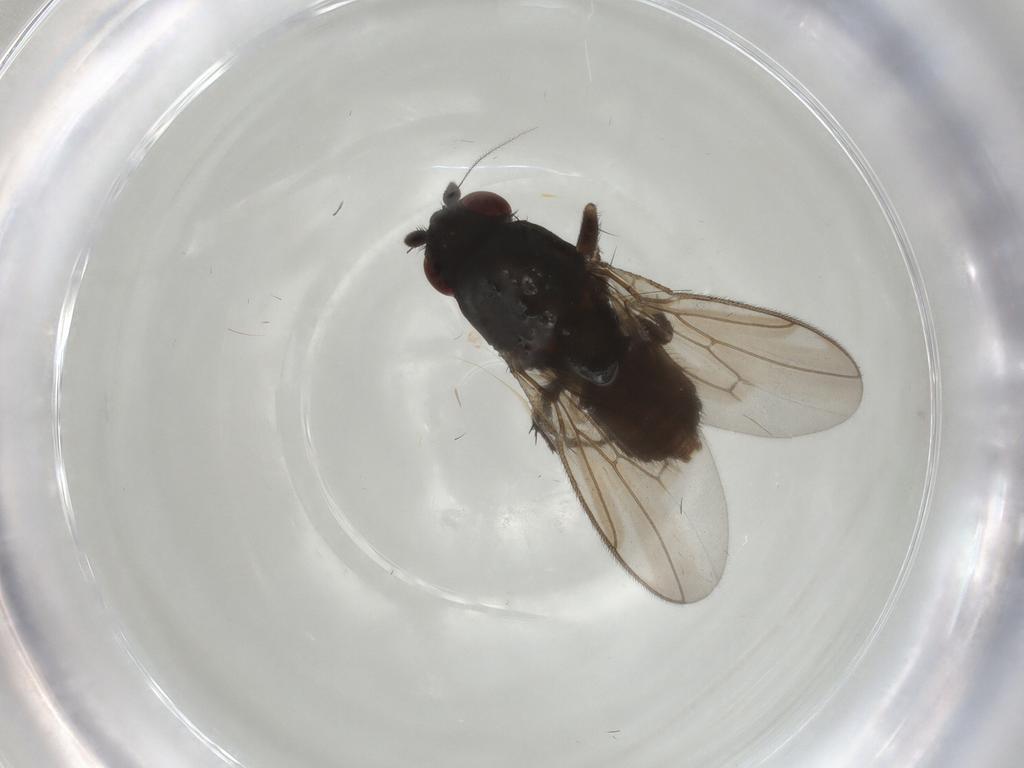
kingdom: Animalia
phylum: Arthropoda
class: Insecta
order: Diptera
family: Sphaeroceridae
